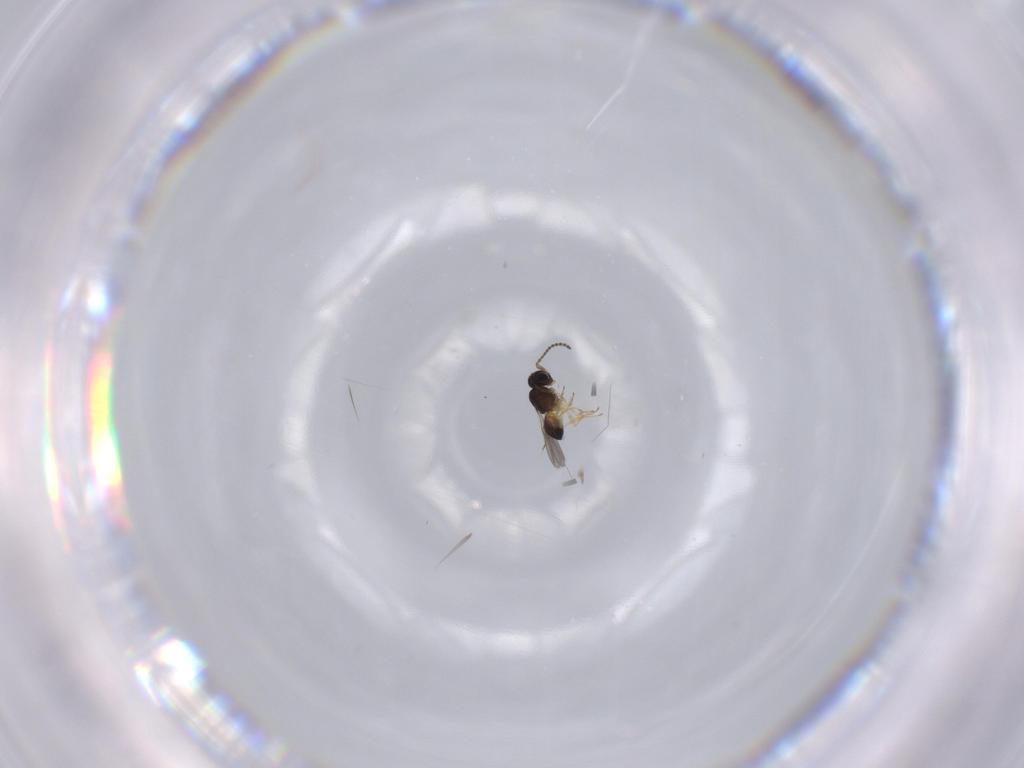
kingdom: Animalia
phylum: Arthropoda
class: Insecta
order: Hymenoptera
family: Scelionidae
